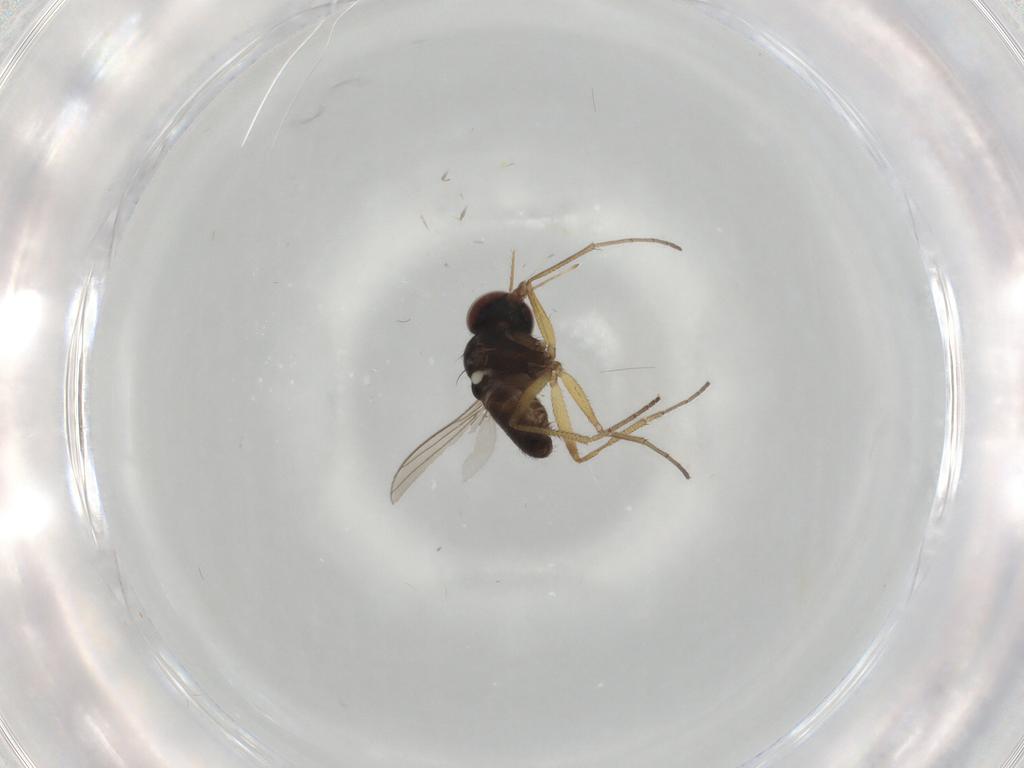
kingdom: Animalia
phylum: Arthropoda
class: Insecta
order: Diptera
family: Dolichopodidae
